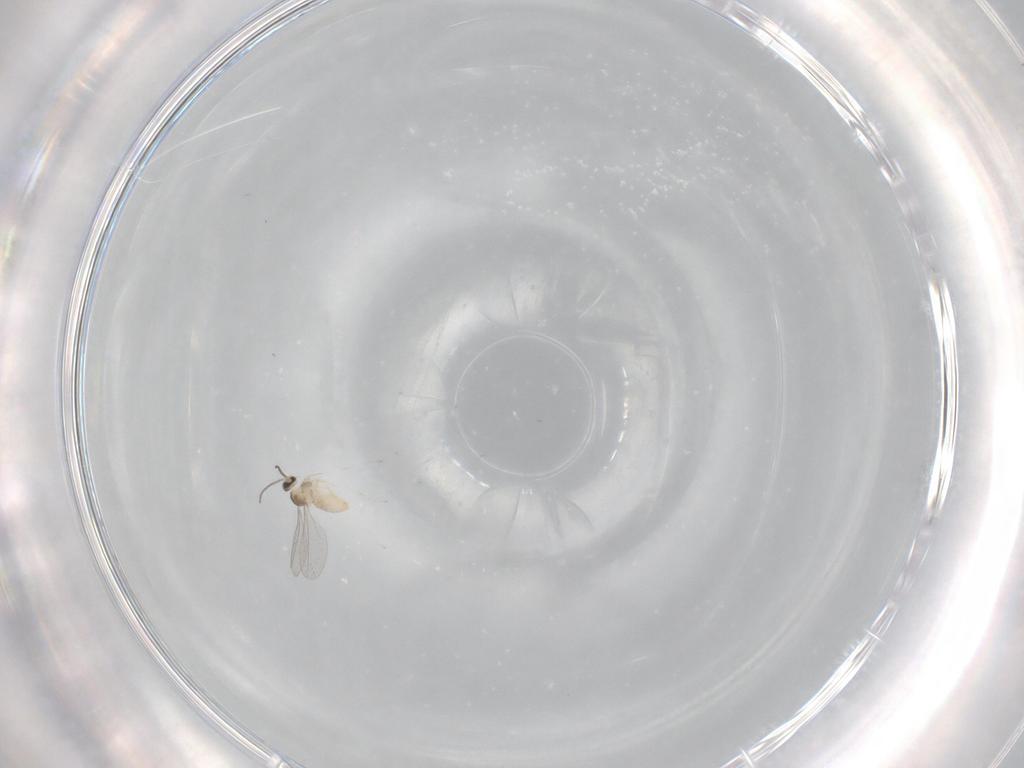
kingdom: Animalia
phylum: Arthropoda
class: Insecta
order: Diptera
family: Cecidomyiidae
